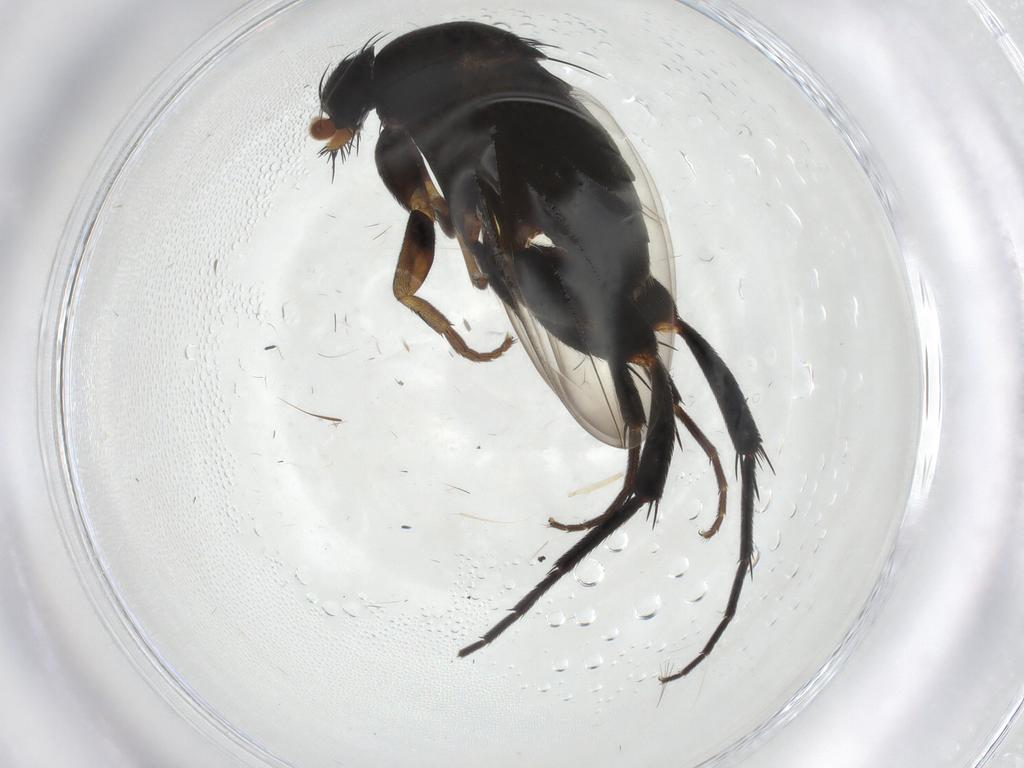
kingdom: Animalia
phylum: Arthropoda
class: Insecta
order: Diptera
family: Phoridae
